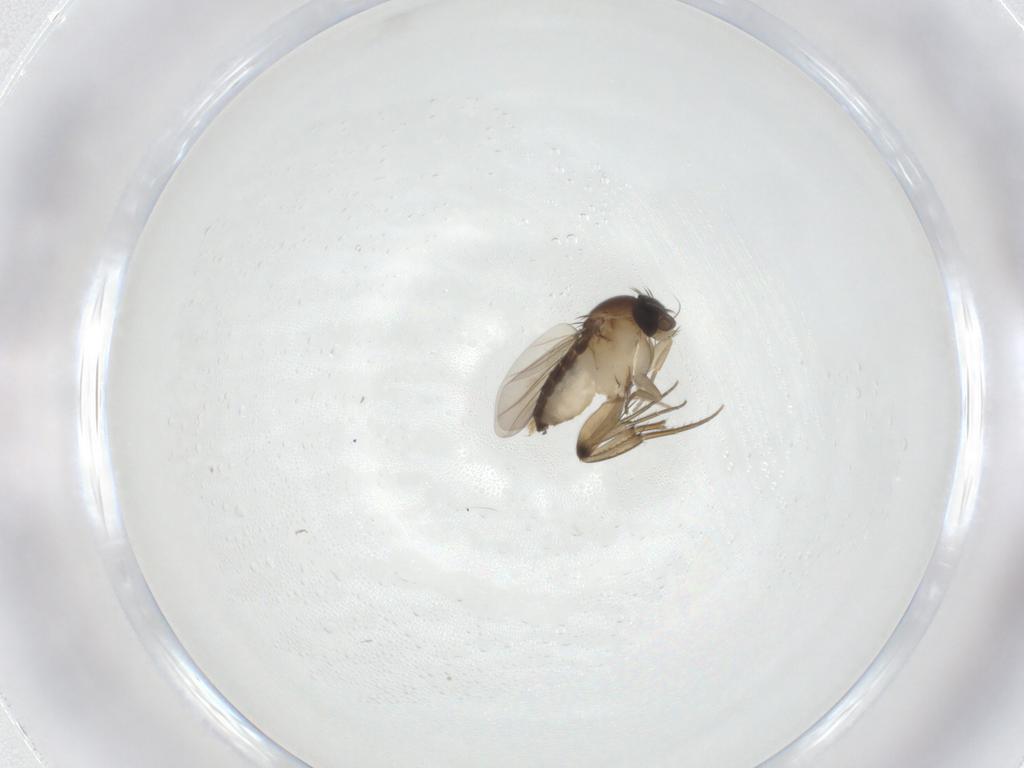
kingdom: Animalia
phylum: Arthropoda
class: Insecta
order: Diptera
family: Phoridae
